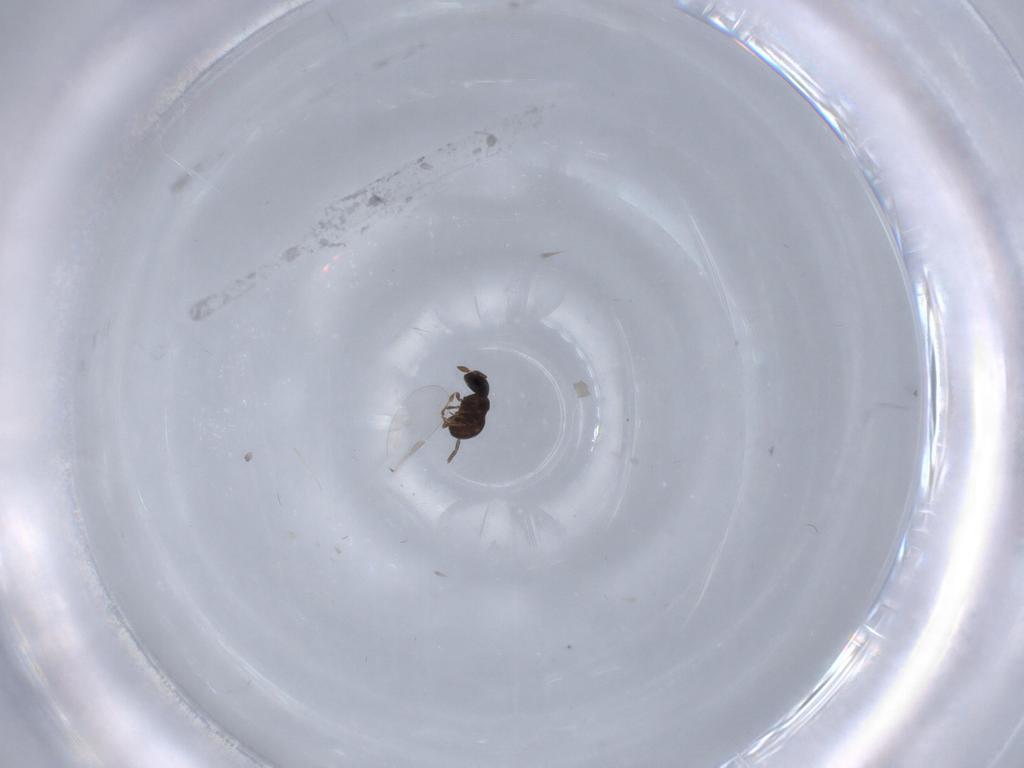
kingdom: Animalia
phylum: Arthropoda
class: Insecta
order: Hymenoptera
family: Scelionidae
